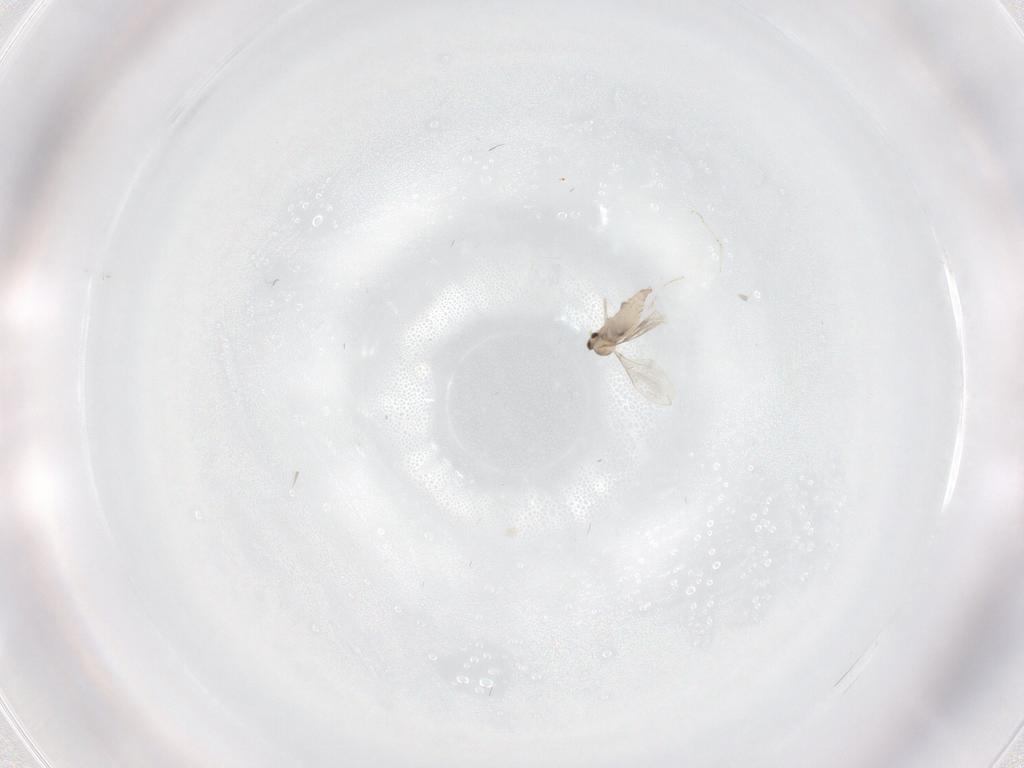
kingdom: Animalia
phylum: Arthropoda
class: Insecta
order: Diptera
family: Cecidomyiidae
